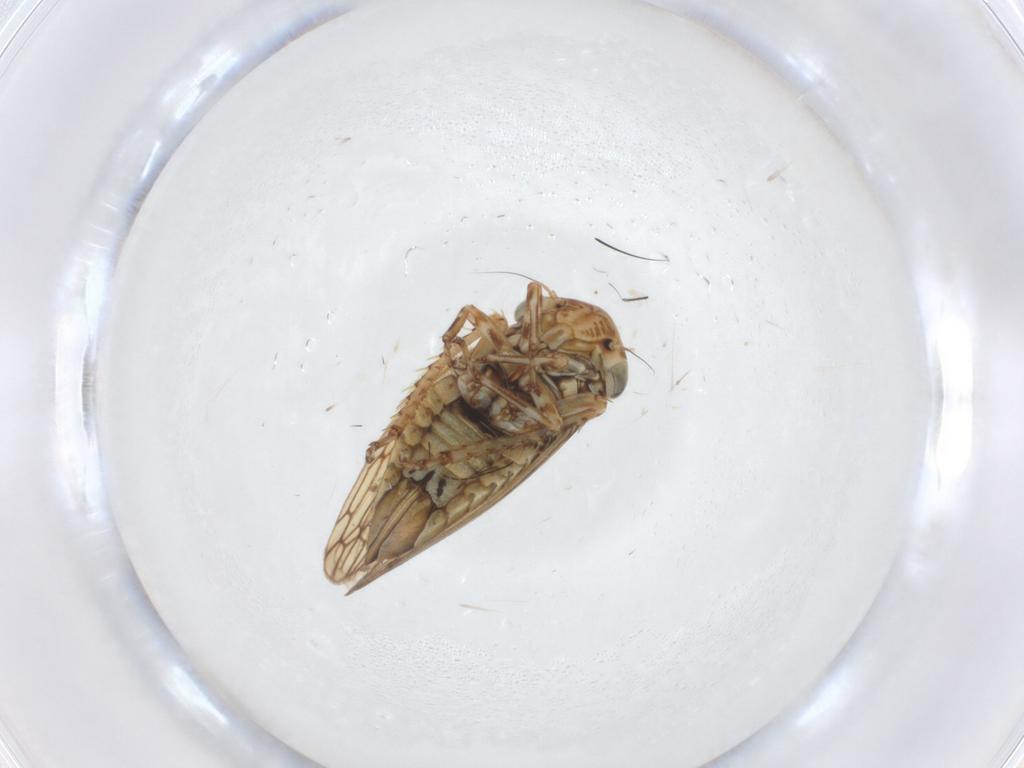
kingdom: Animalia
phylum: Arthropoda
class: Insecta
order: Hemiptera
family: Cicadellidae
